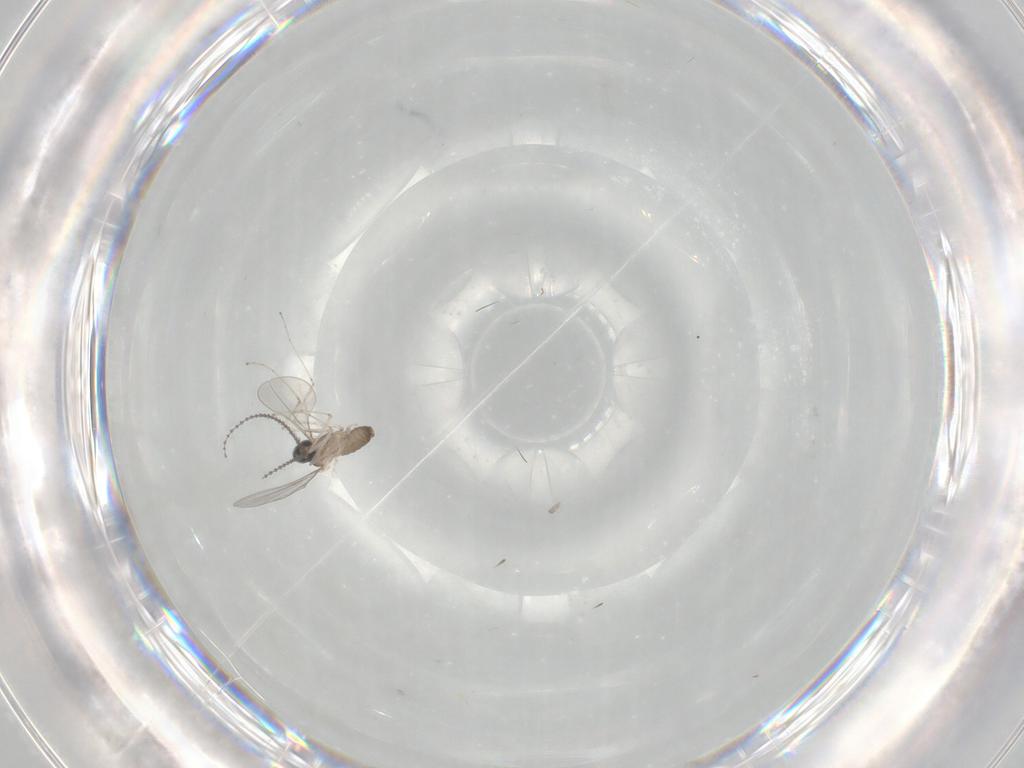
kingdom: Animalia
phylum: Arthropoda
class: Insecta
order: Diptera
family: Cecidomyiidae
